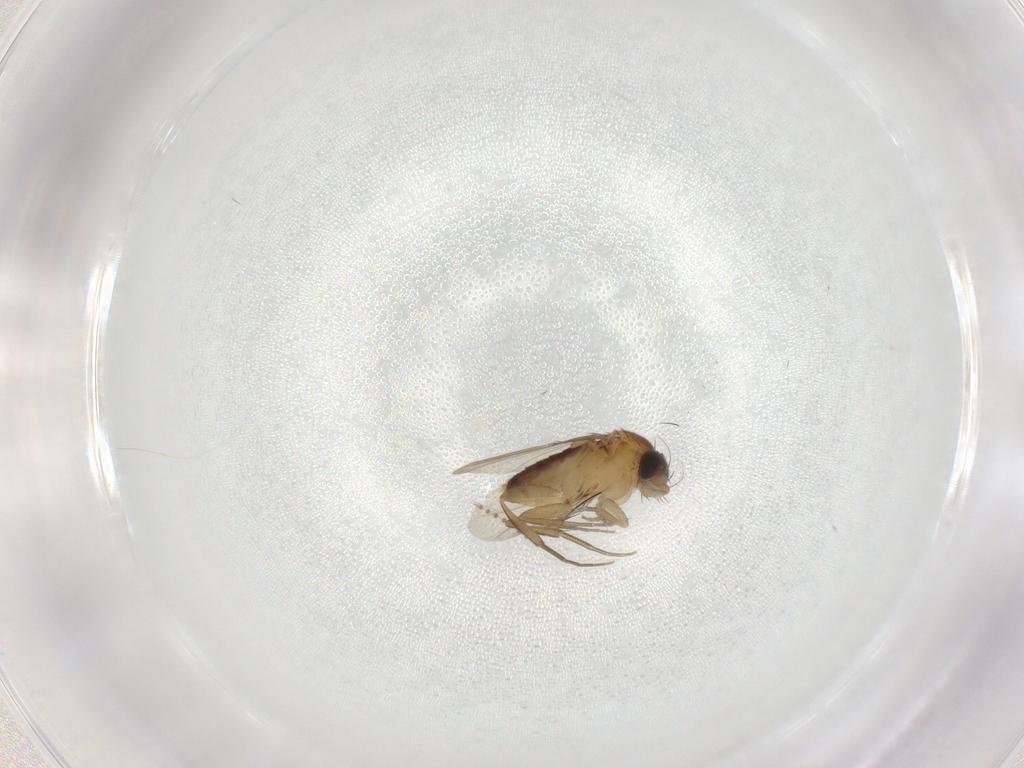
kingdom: Animalia
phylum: Arthropoda
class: Insecta
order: Diptera
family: Phoridae
